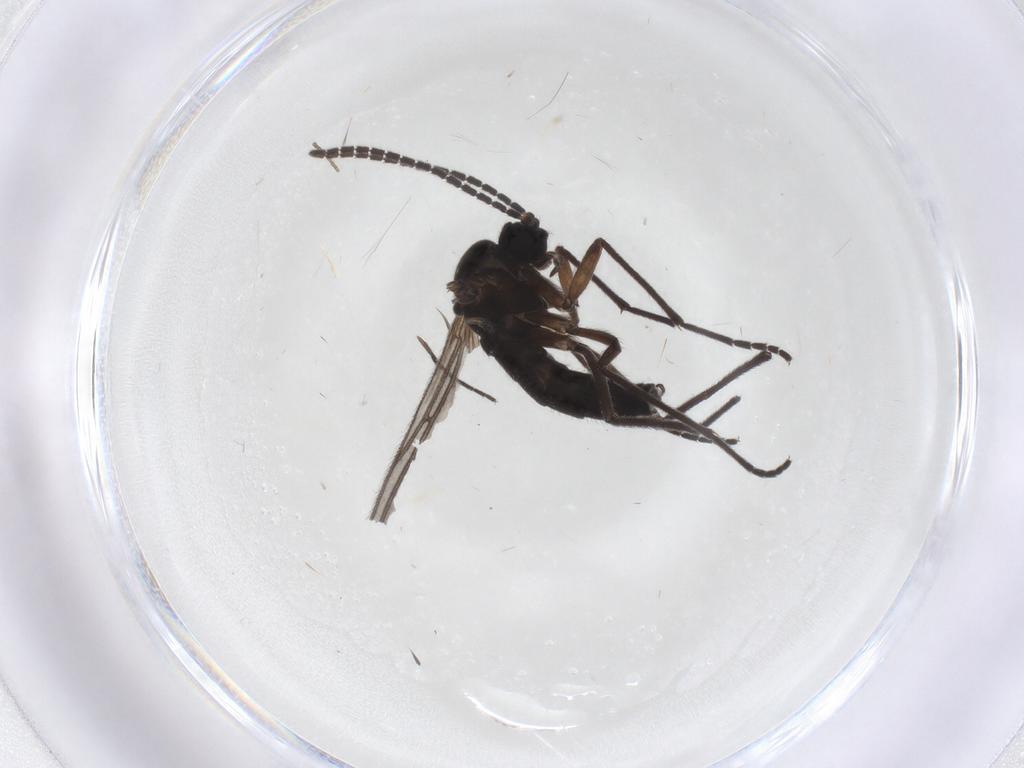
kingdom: Animalia
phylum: Arthropoda
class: Insecta
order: Diptera
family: Sciaridae
